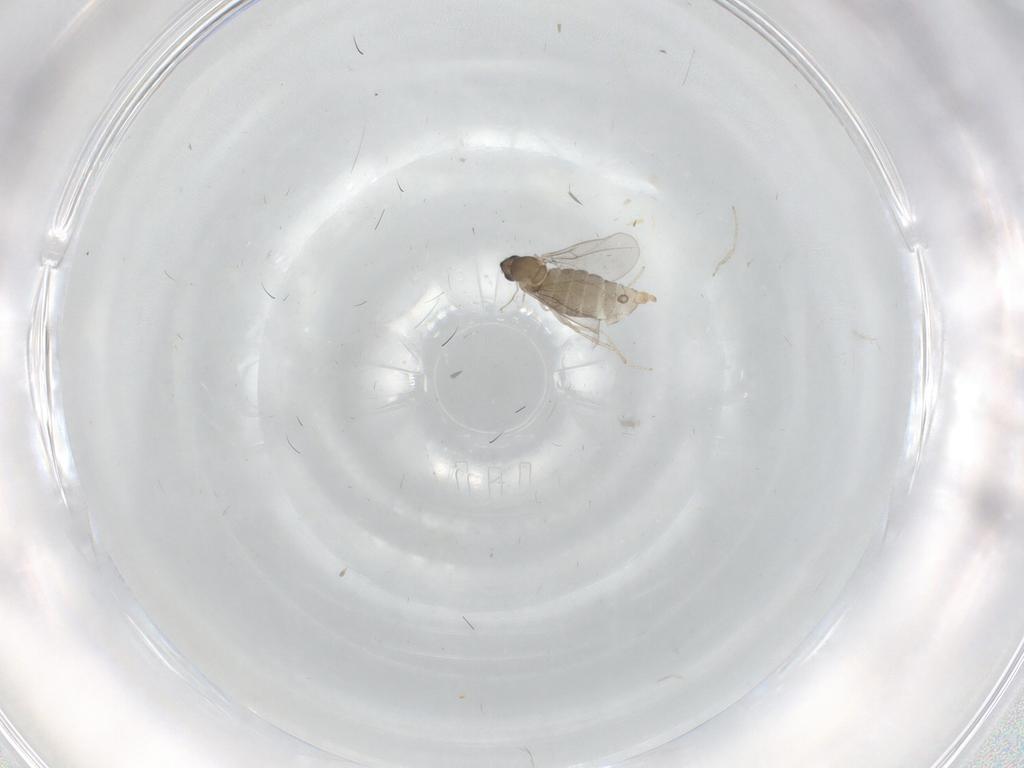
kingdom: Animalia
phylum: Arthropoda
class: Insecta
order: Diptera
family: Cecidomyiidae
